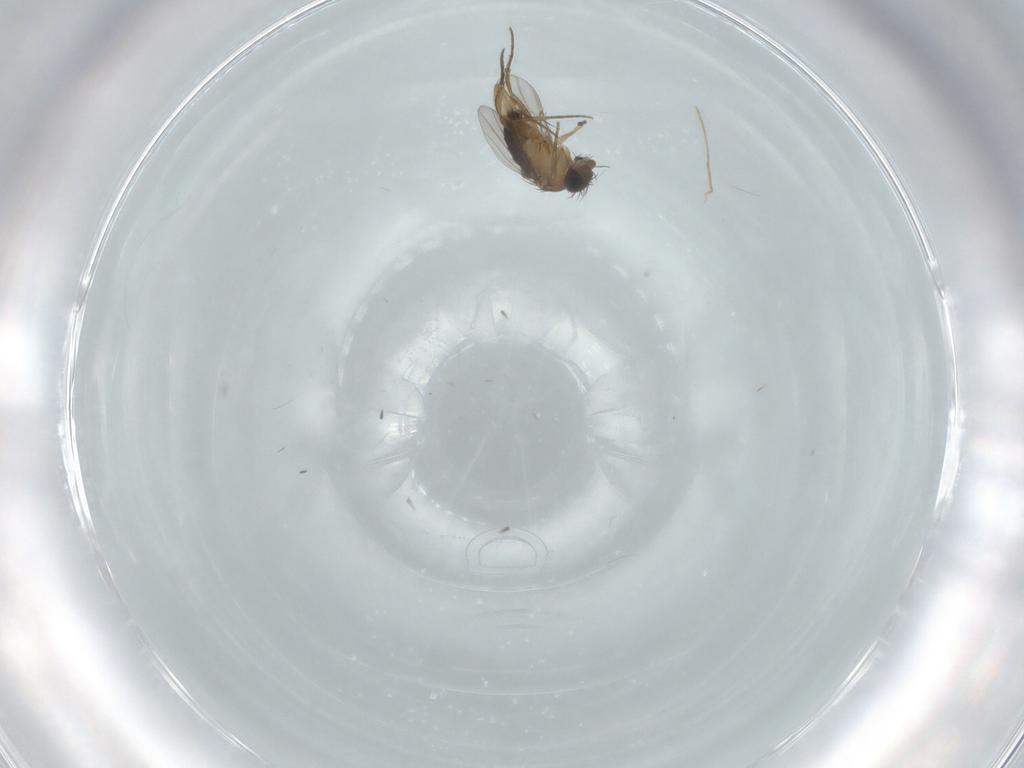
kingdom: Animalia
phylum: Arthropoda
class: Insecta
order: Diptera
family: Phoridae
